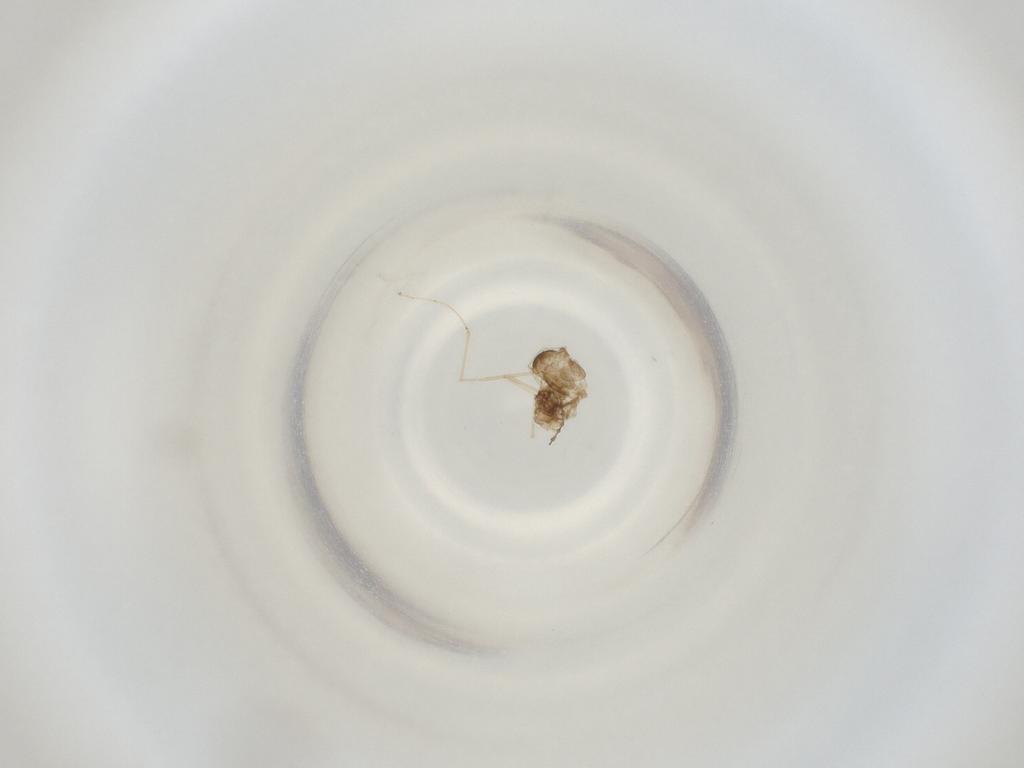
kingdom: Animalia
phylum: Arthropoda
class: Insecta
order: Diptera
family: Cecidomyiidae
